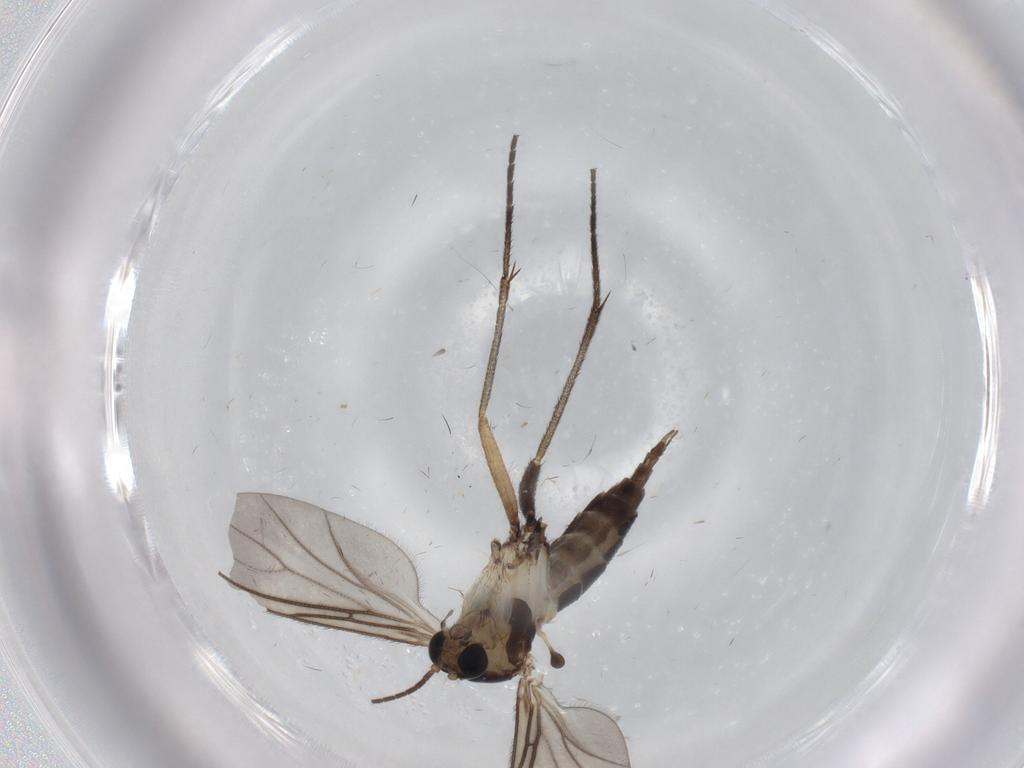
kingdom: Animalia
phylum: Arthropoda
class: Insecta
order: Diptera
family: Sciaridae
